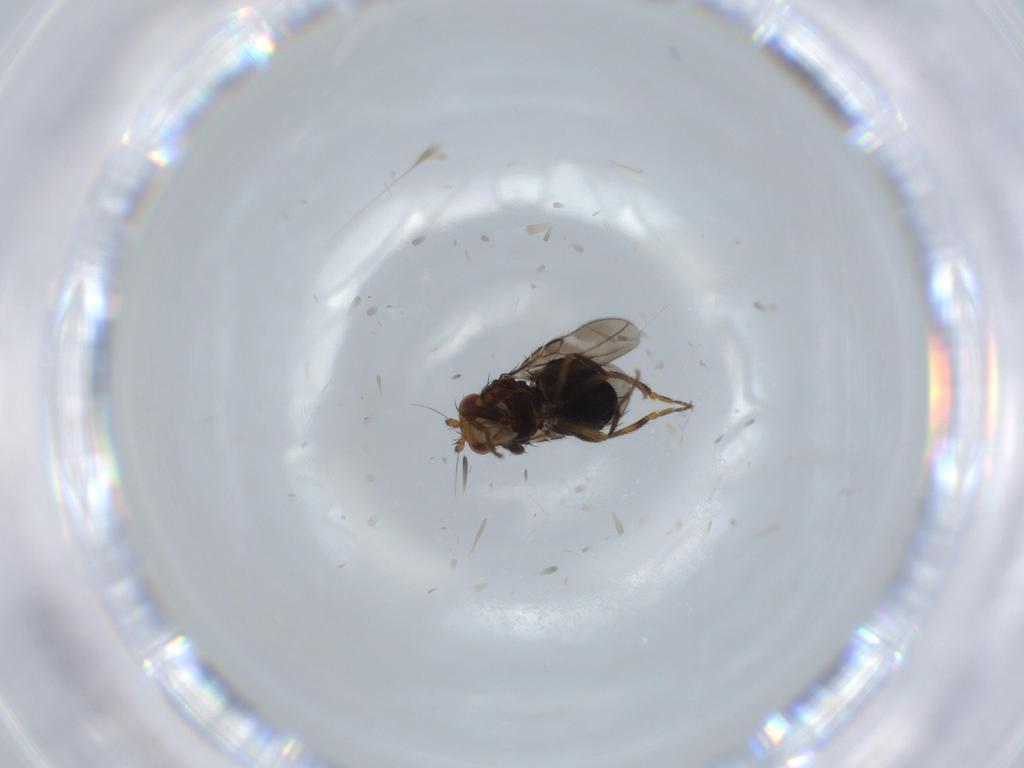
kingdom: Animalia
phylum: Arthropoda
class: Insecta
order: Diptera
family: Sphaeroceridae
